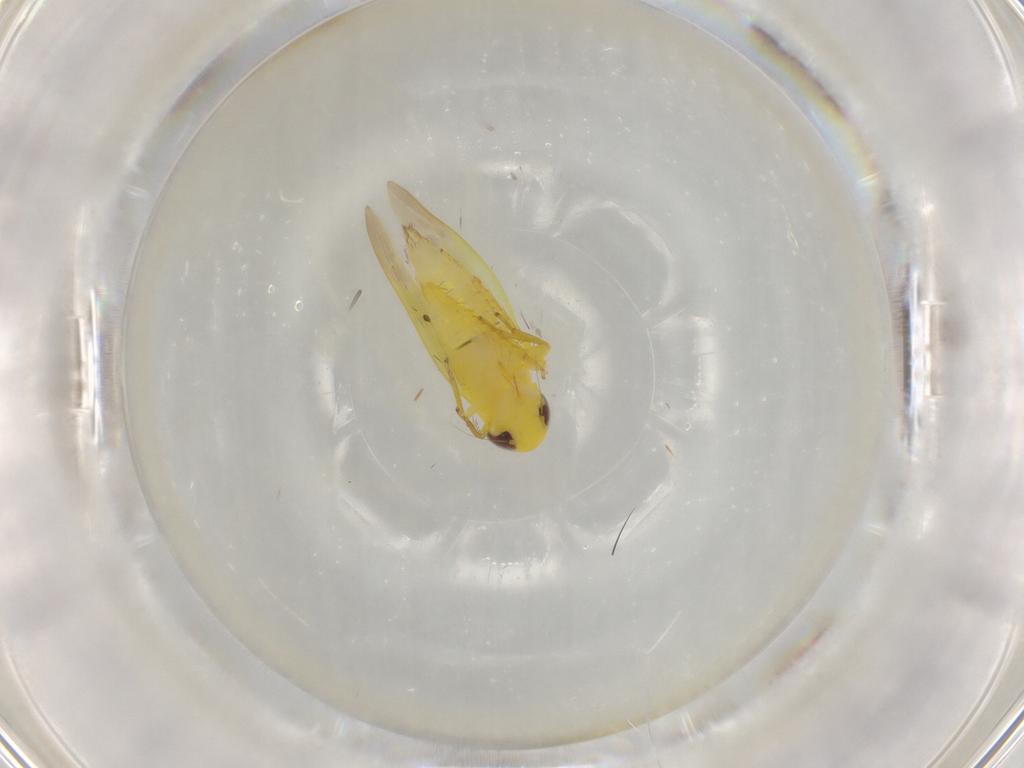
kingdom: Animalia
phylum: Arthropoda
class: Insecta
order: Hemiptera
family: Cicadellidae
